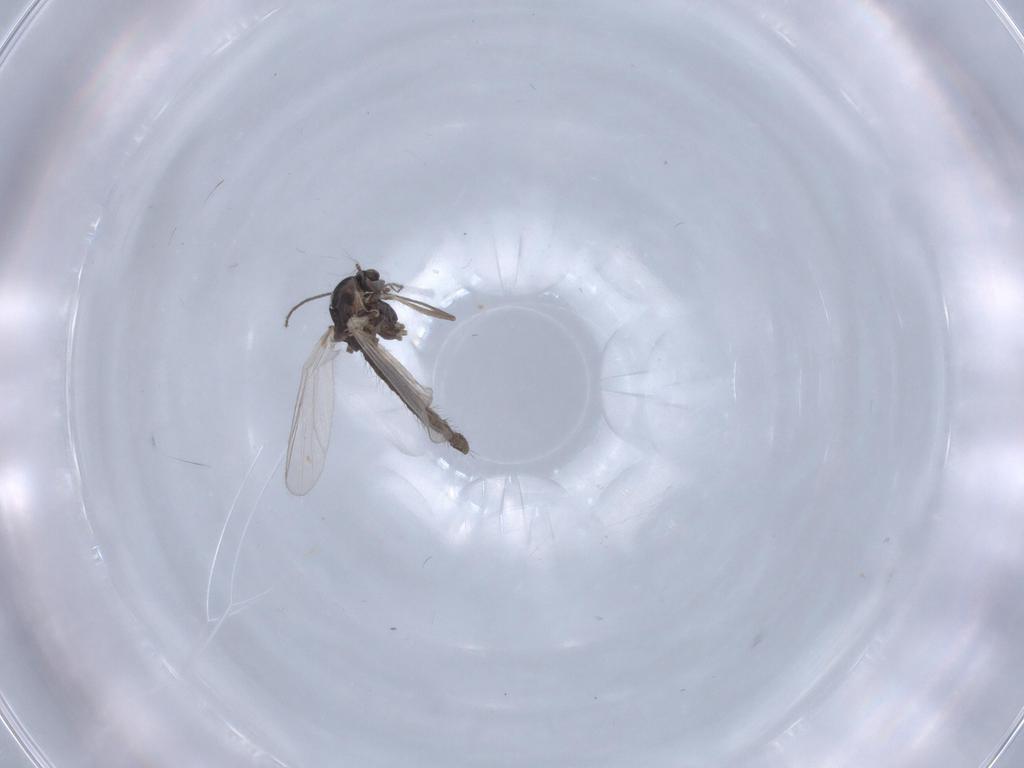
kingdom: Animalia
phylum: Arthropoda
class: Insecta
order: Diptera
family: Chironomidae
